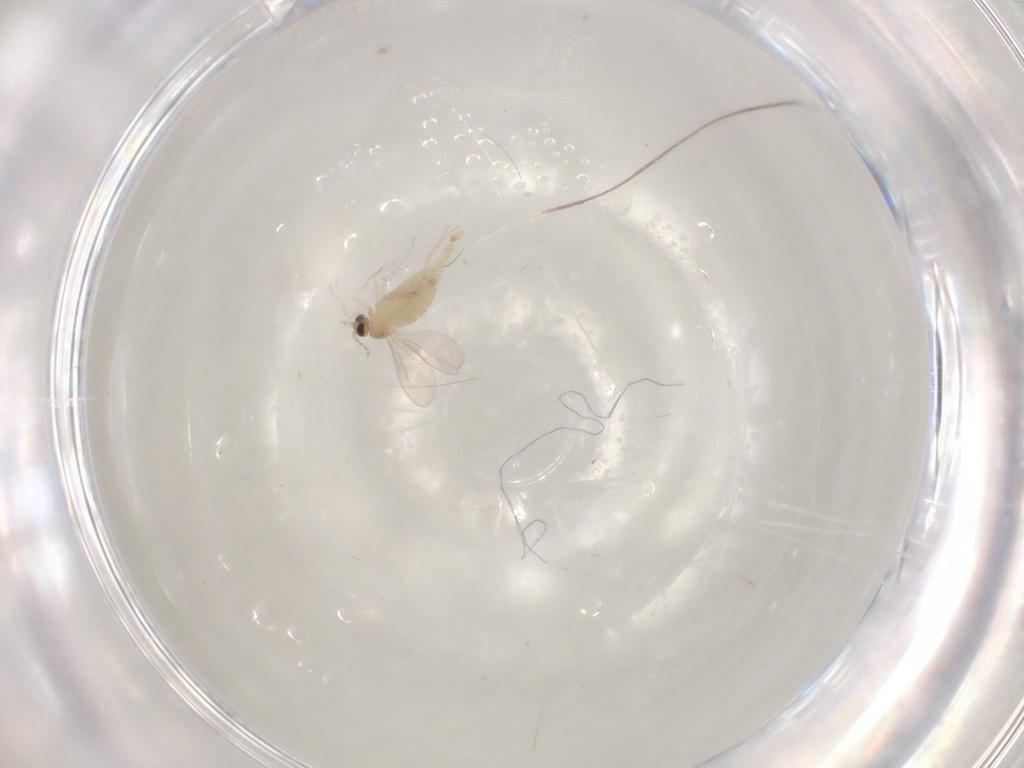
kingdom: Animalia
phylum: Arthropoda
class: Insecta
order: Diptera
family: Cecidomyiidae
